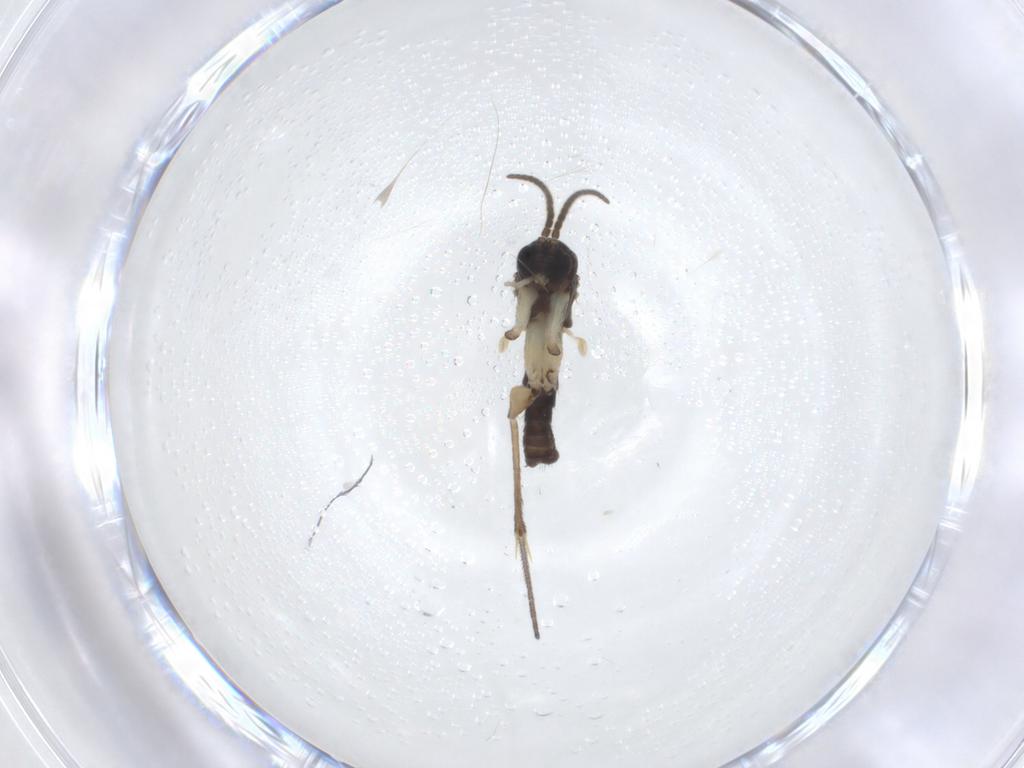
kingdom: Animalia
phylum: Arthropoda
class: Insecta
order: Diptera
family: Mycetophilidae
